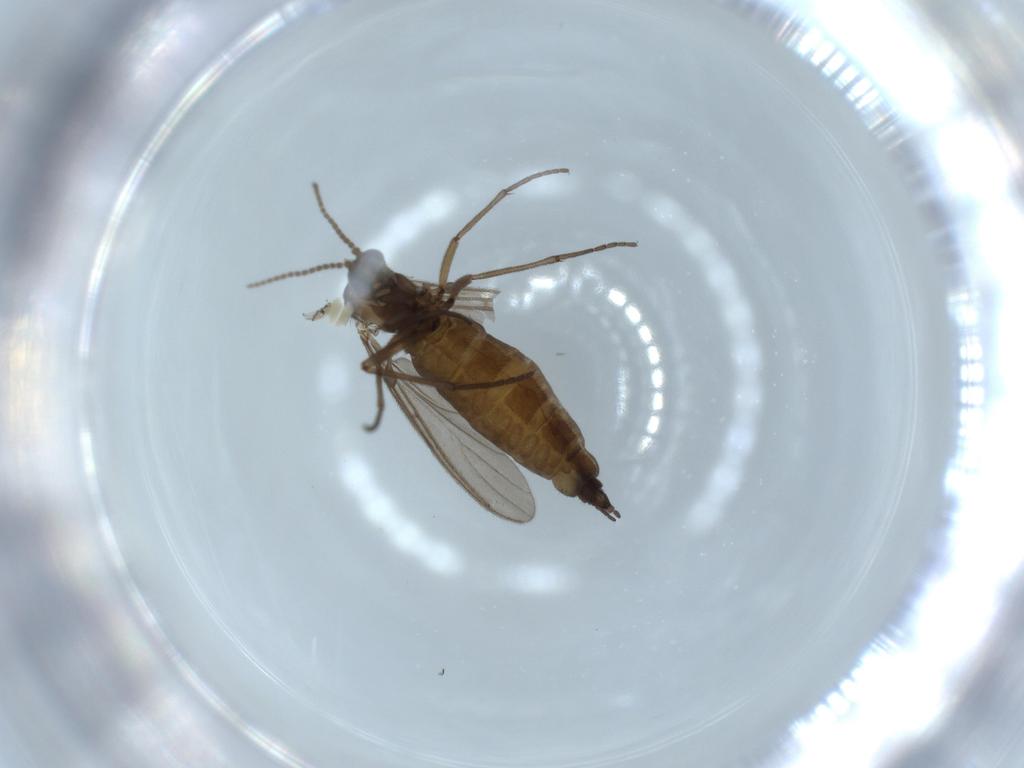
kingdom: Animalia
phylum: Arthropoda
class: Insecta
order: Diptera
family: Sciaridae
